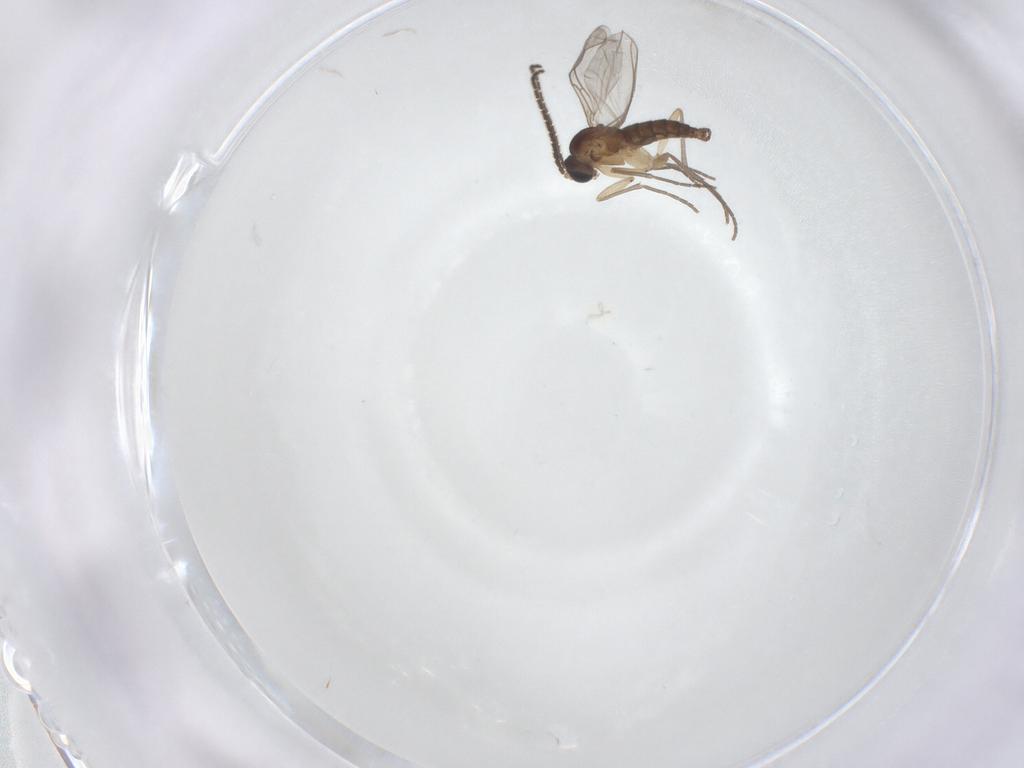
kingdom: Animalia
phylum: Arthropoda
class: Insecta
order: Diptera
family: Sciaridae
